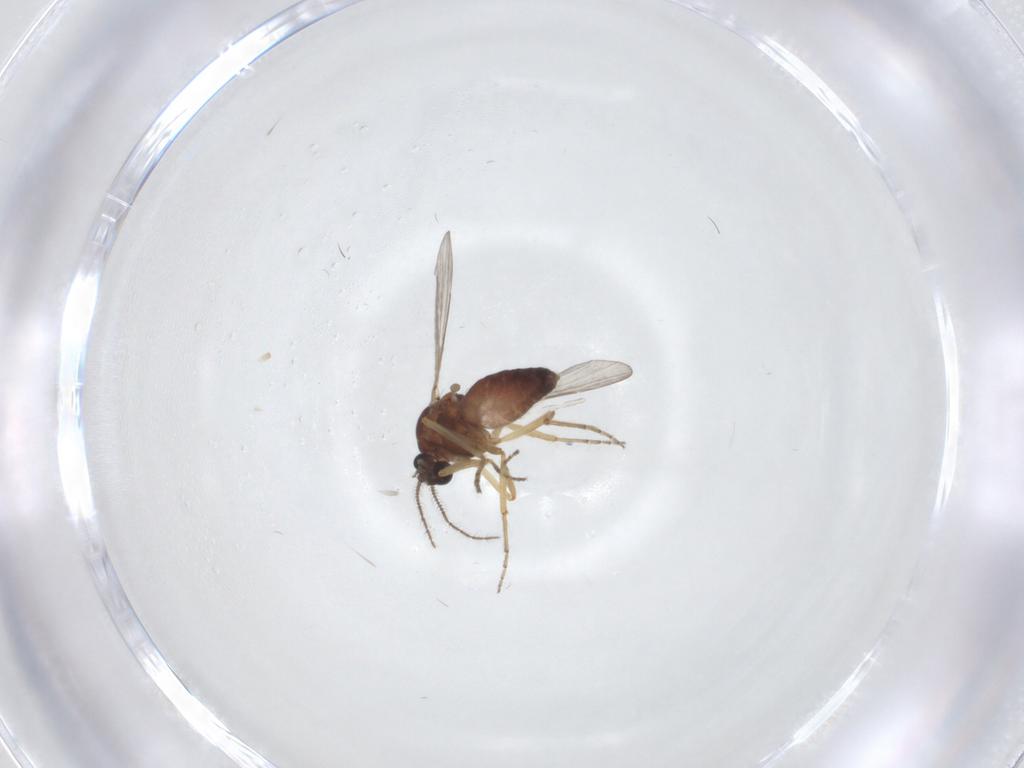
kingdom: Animalia
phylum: Arthropoda
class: Insecta
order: Diptera
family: Ceratopogonidae
